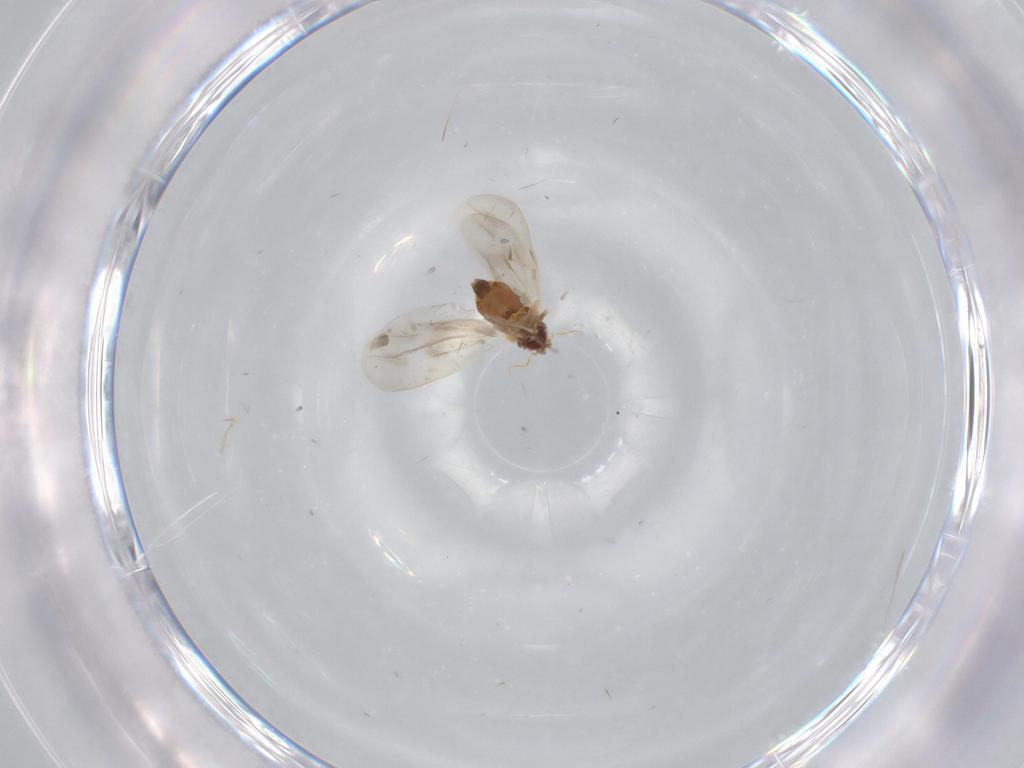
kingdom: Animalia
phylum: Arthropoda
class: Insecta
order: Hemiptera
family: Aleyrodidae
